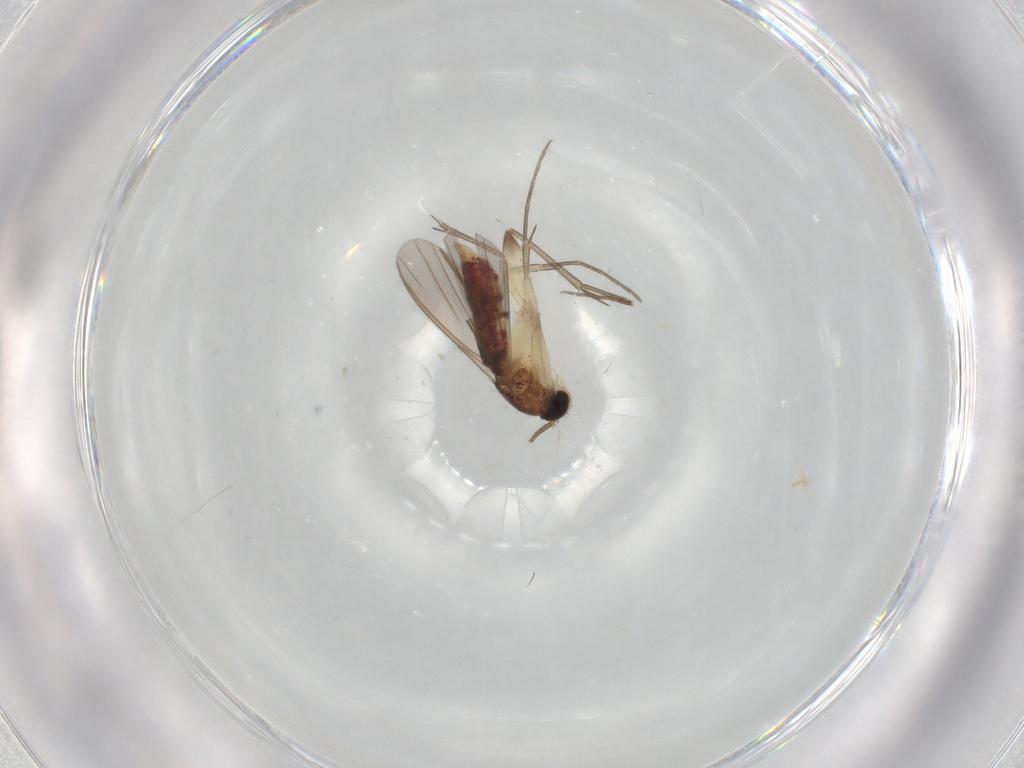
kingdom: Animalia
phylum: Arthropoda
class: Insecta
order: Diptera
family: Mycetophilidae
